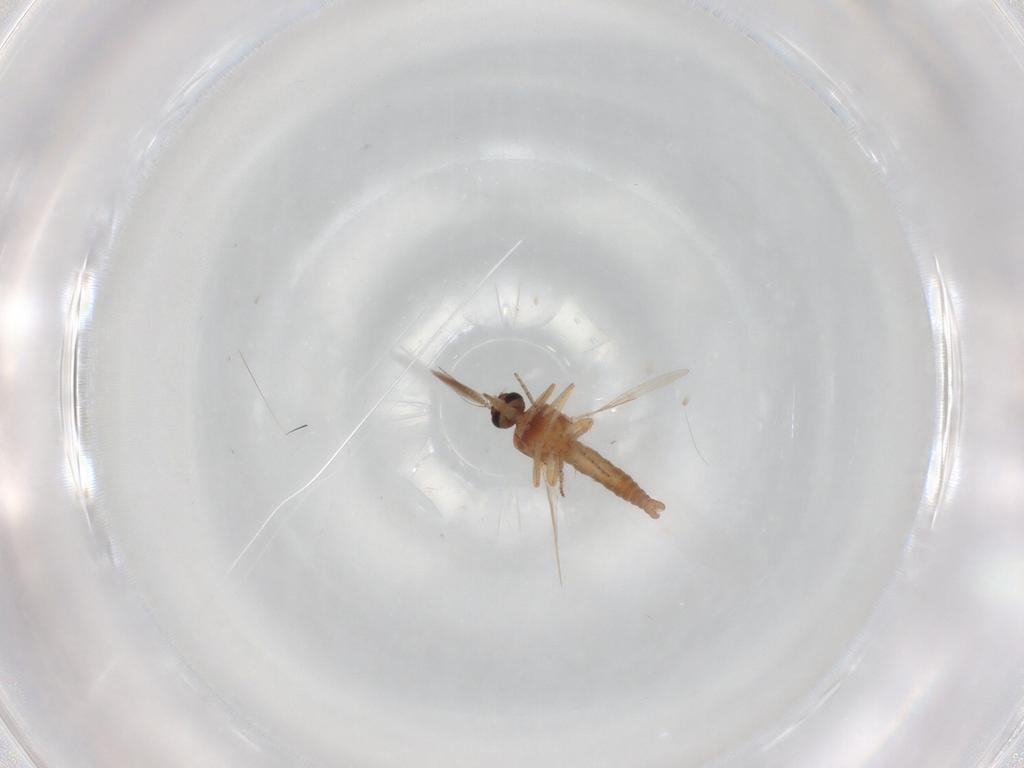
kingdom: Animalia
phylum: Arthropoda
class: Insecta
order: Diptera
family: Ceratopogonidae
